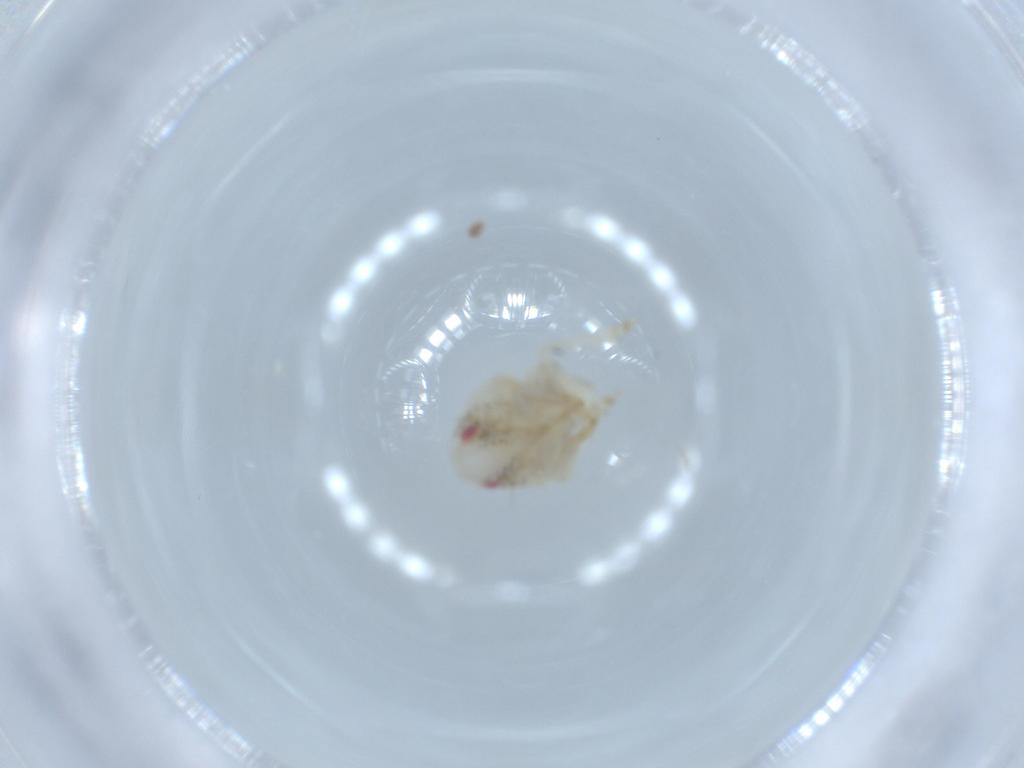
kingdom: Animalia
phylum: Arthropoda
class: Insecta
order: Hemiptera
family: Acanaloniidae
